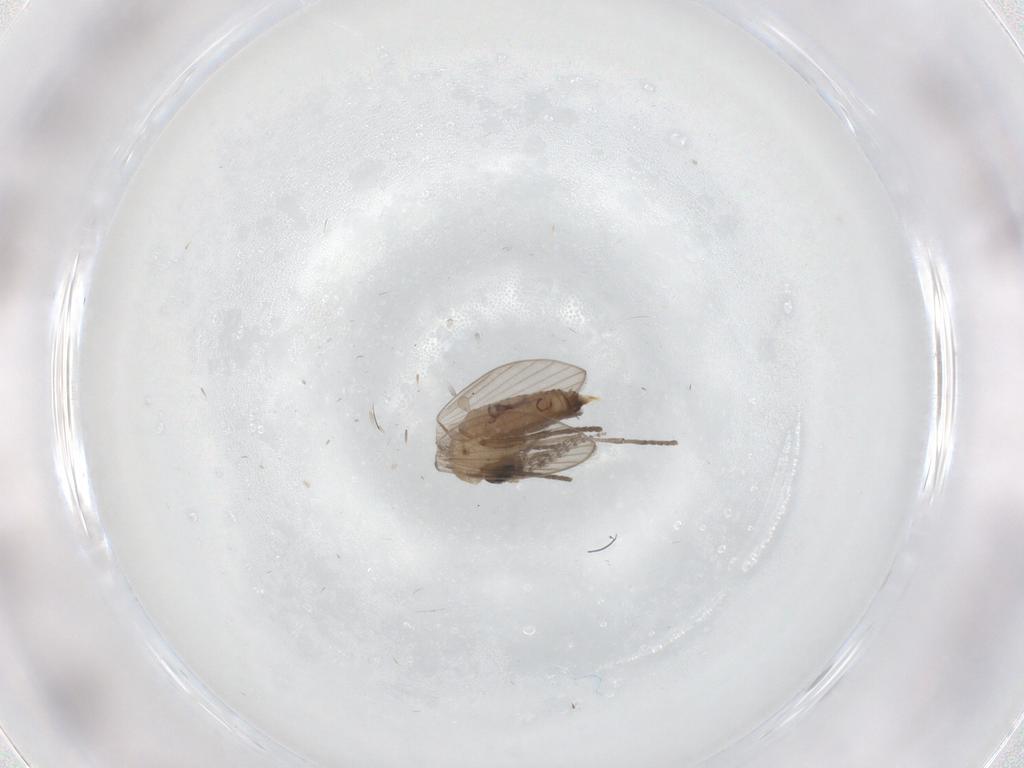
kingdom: Animalia
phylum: Arthropoda
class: Insecta
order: Diptera
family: Psychodidae
